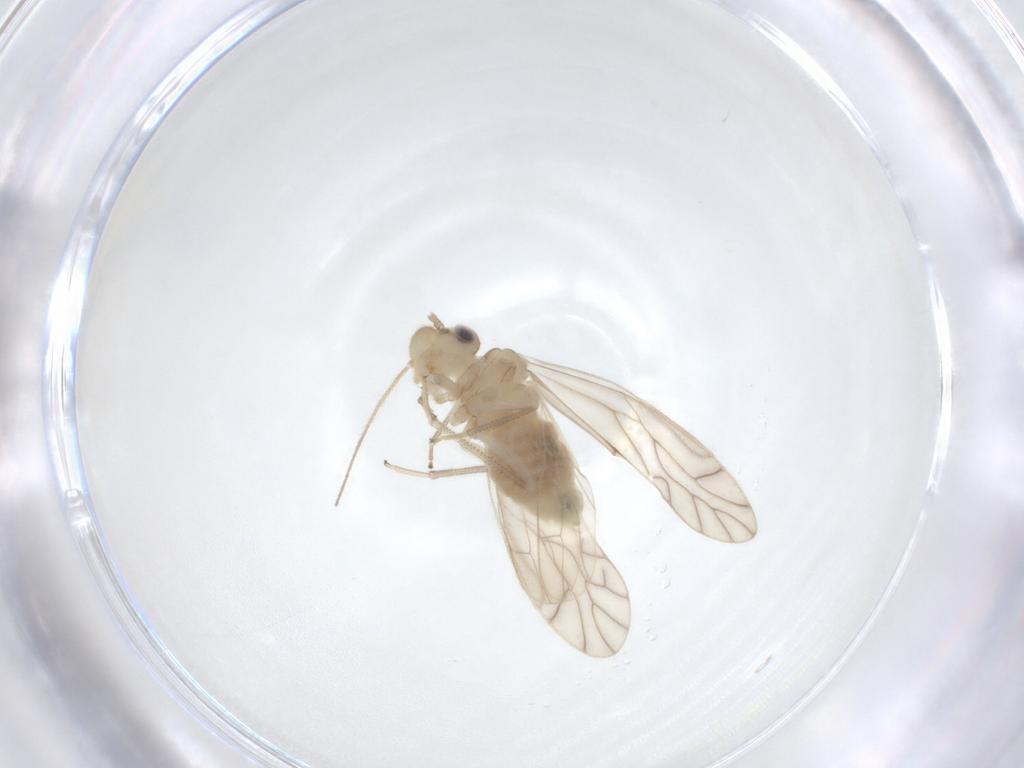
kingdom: Animalia
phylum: Arthropoda
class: Insecta
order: Psocodea
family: Caeciliusidae
